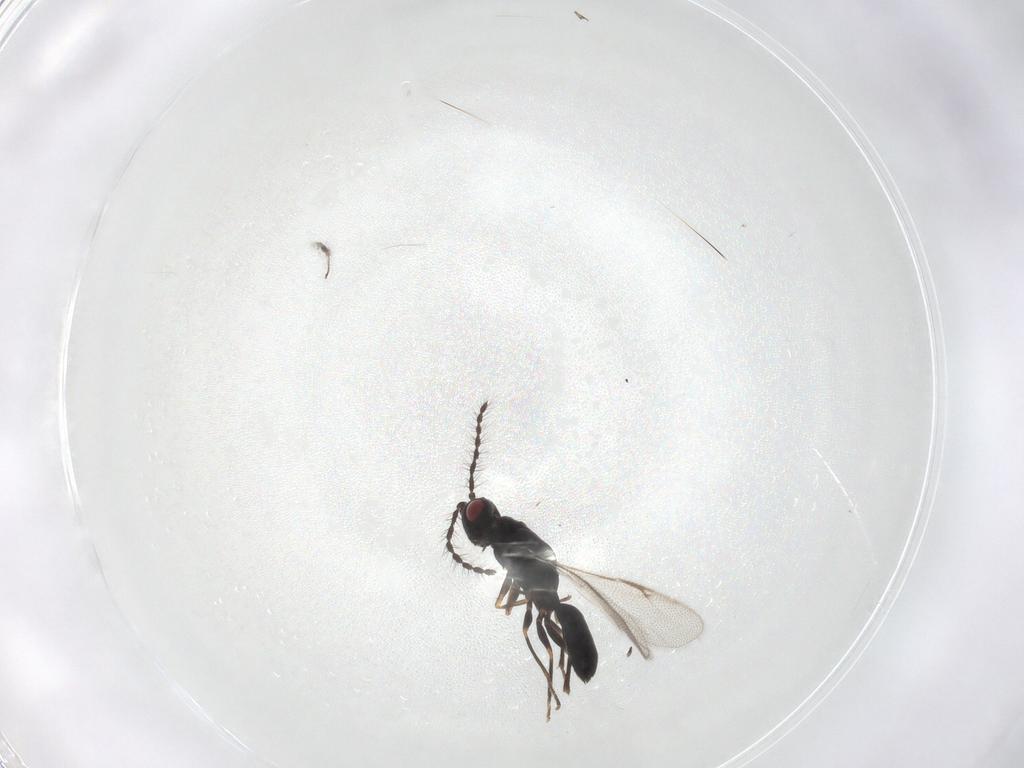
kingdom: Animalia
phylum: Arthropoda
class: Insecta
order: Hymenoptera
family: Scelionidae
